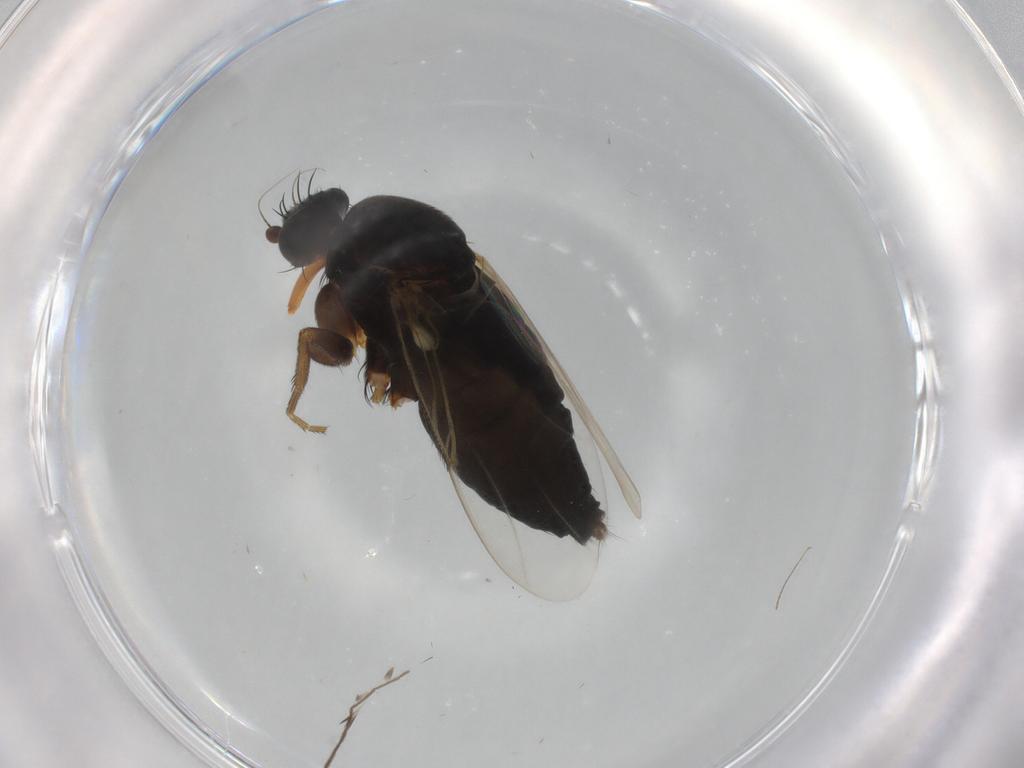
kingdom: Animalia
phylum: Arthropoda
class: Insecta
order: Diptera
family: Phoridae
